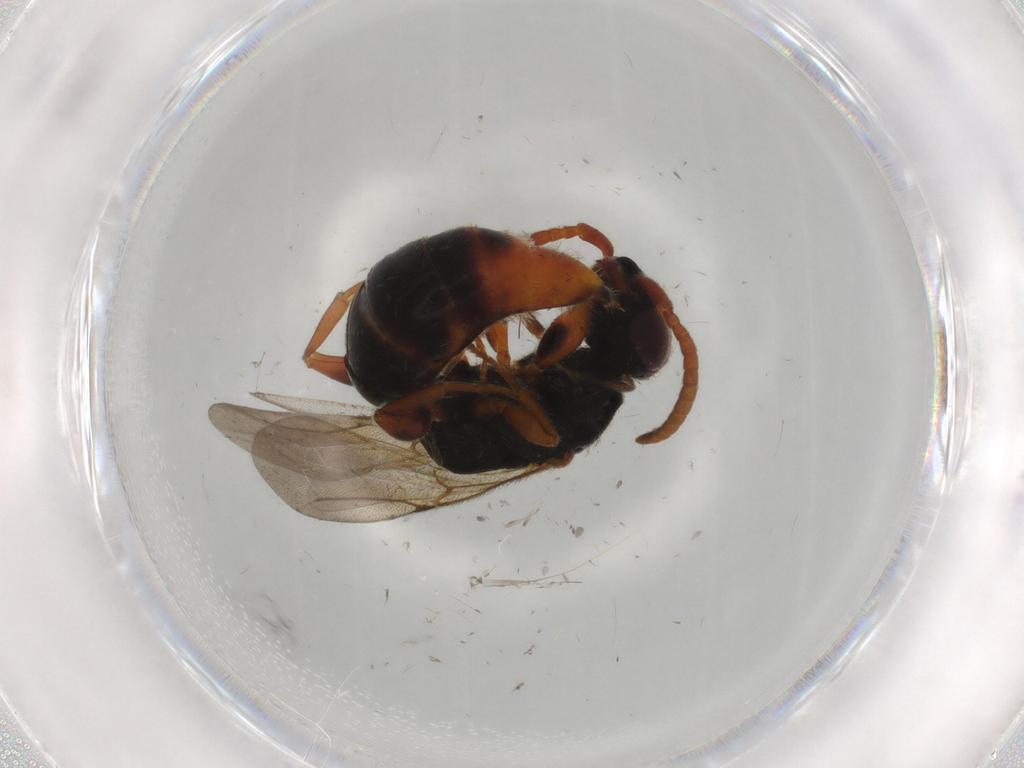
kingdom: Animalia
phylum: Arthropoda
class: Insecta
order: Hymenoptera
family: Bethylidae
